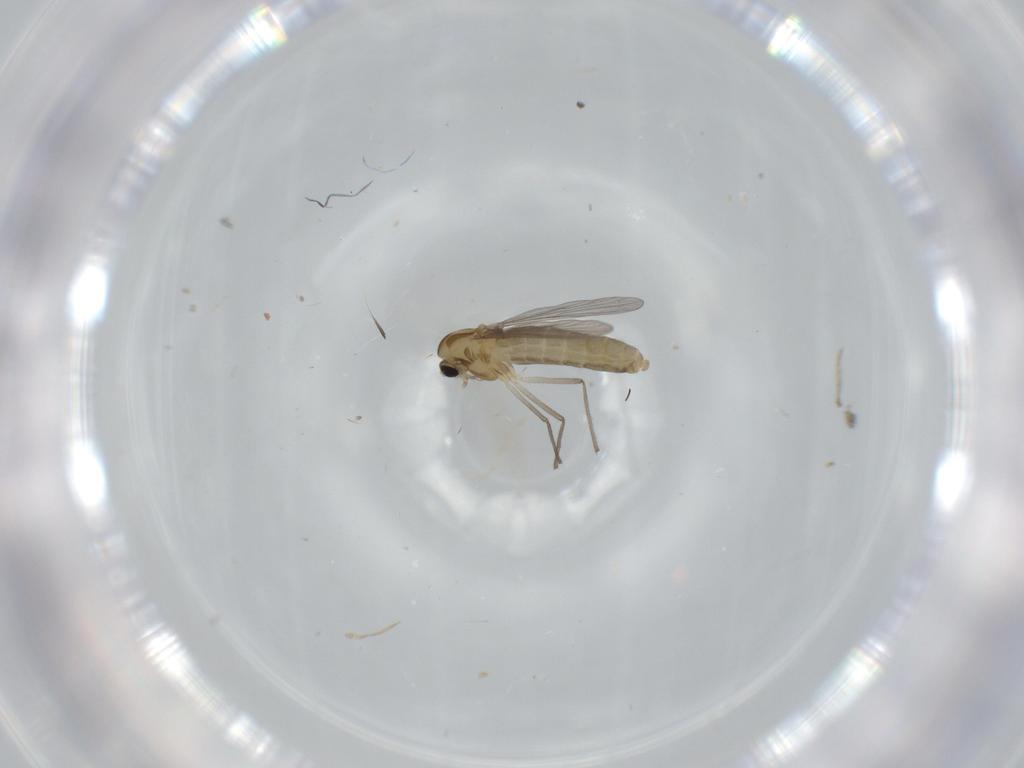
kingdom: Animalia
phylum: Arthropoda
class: Insecta
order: Diptera
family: Chironomidae
